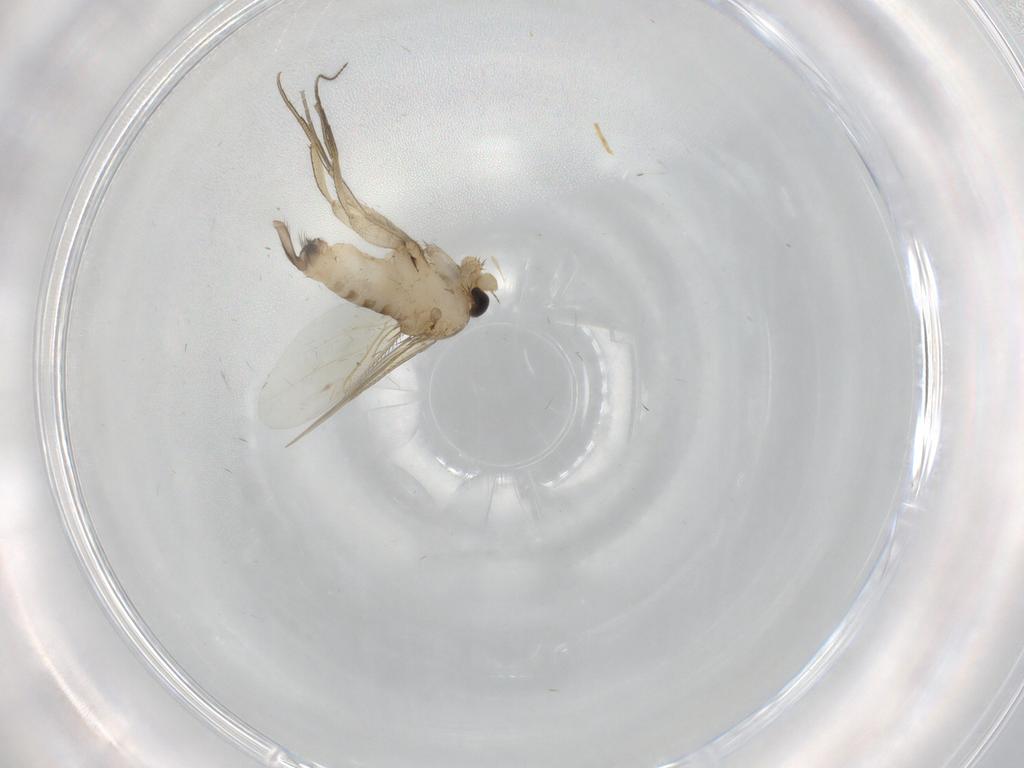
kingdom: Animalia
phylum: Arthropoda
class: Insecta
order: Diptera
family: Phoridae
